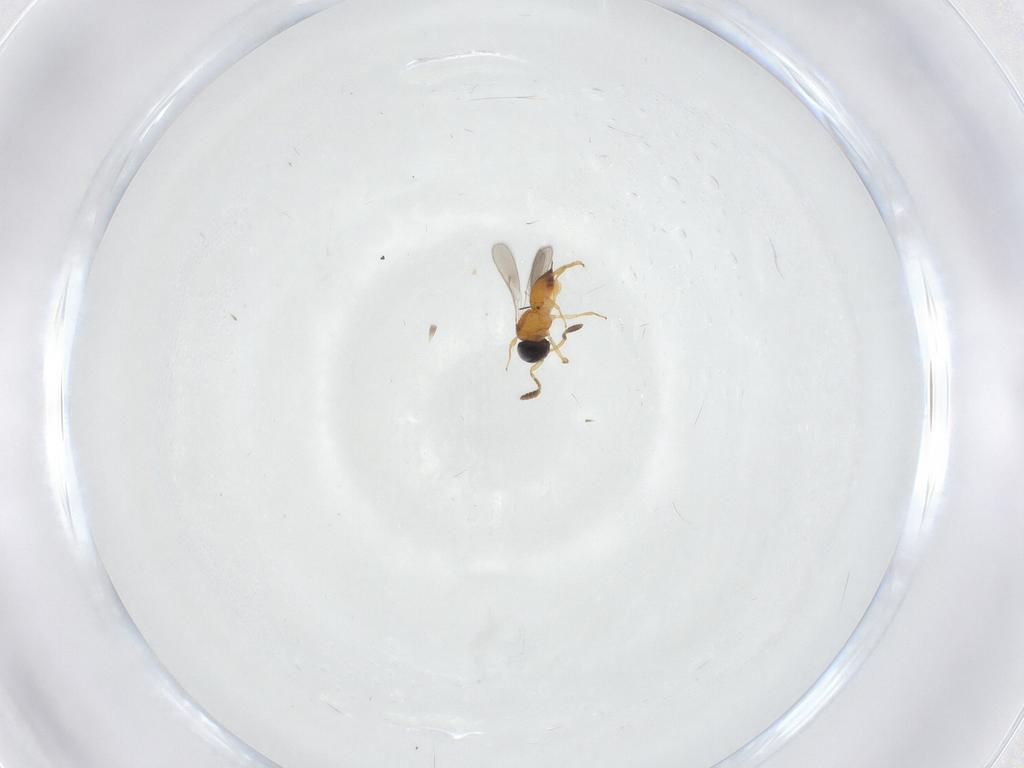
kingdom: Animalia
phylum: Arthropoda
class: Insecta
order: Hymenoptera
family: Scelionidae
